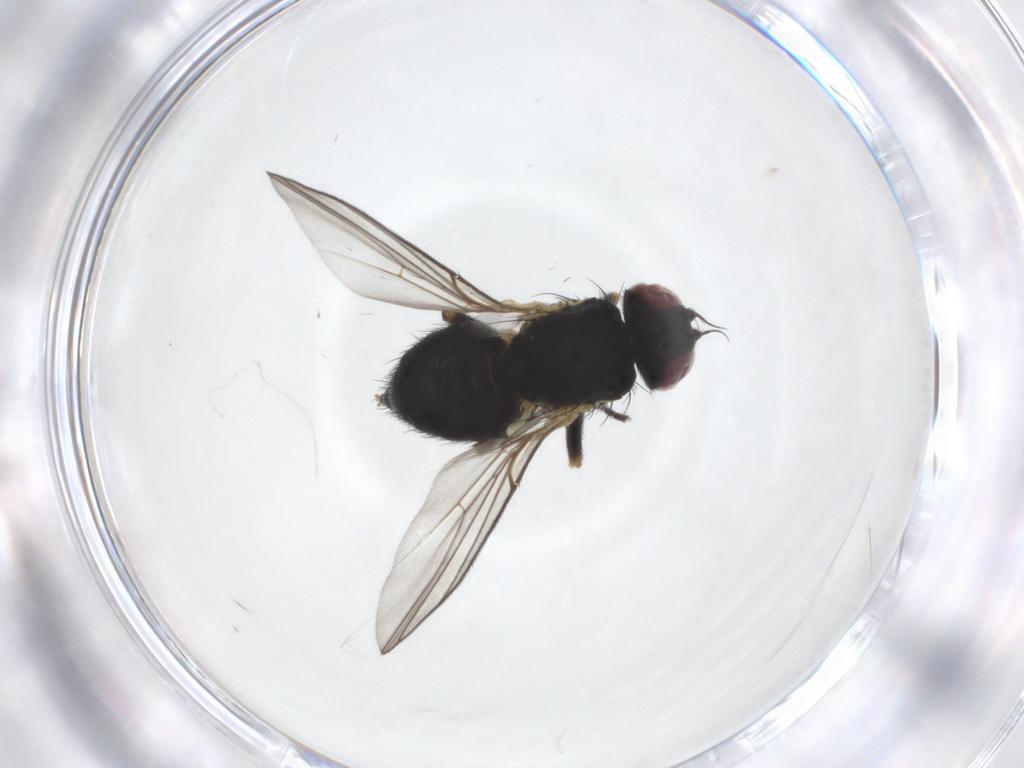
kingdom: Animalia
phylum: Arthropoda
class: Insecta
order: Diptera
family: Agromyzidae
